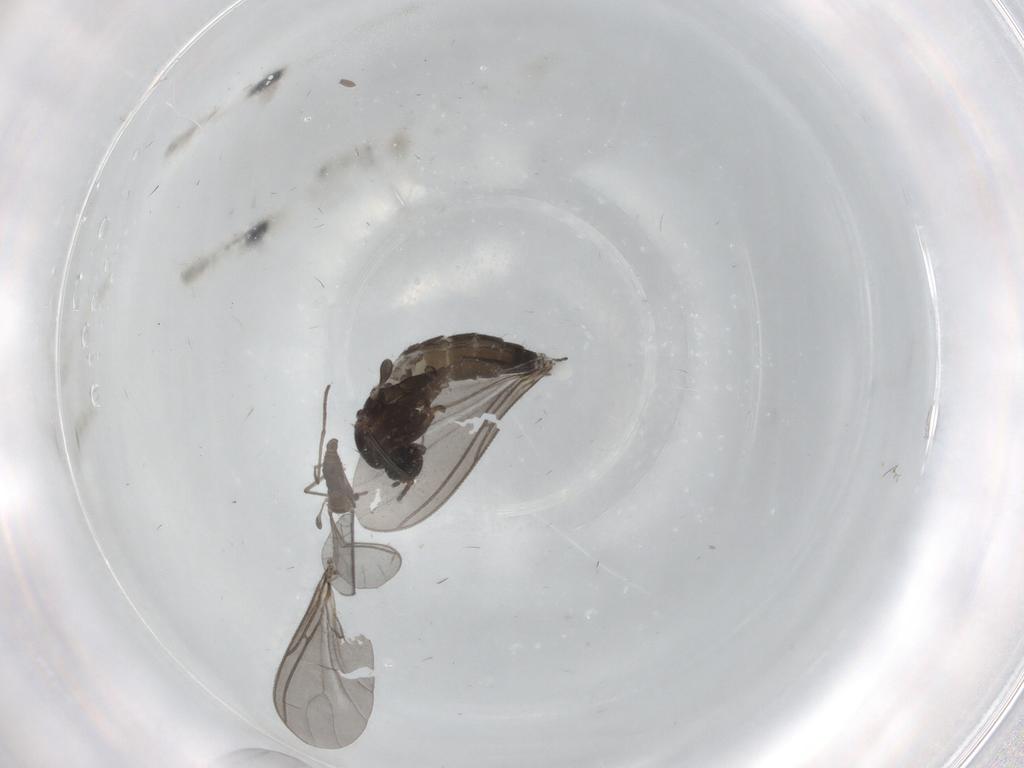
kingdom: Animalia
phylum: Arthropoda
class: Insecta
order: Diptera
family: Sciaridae
